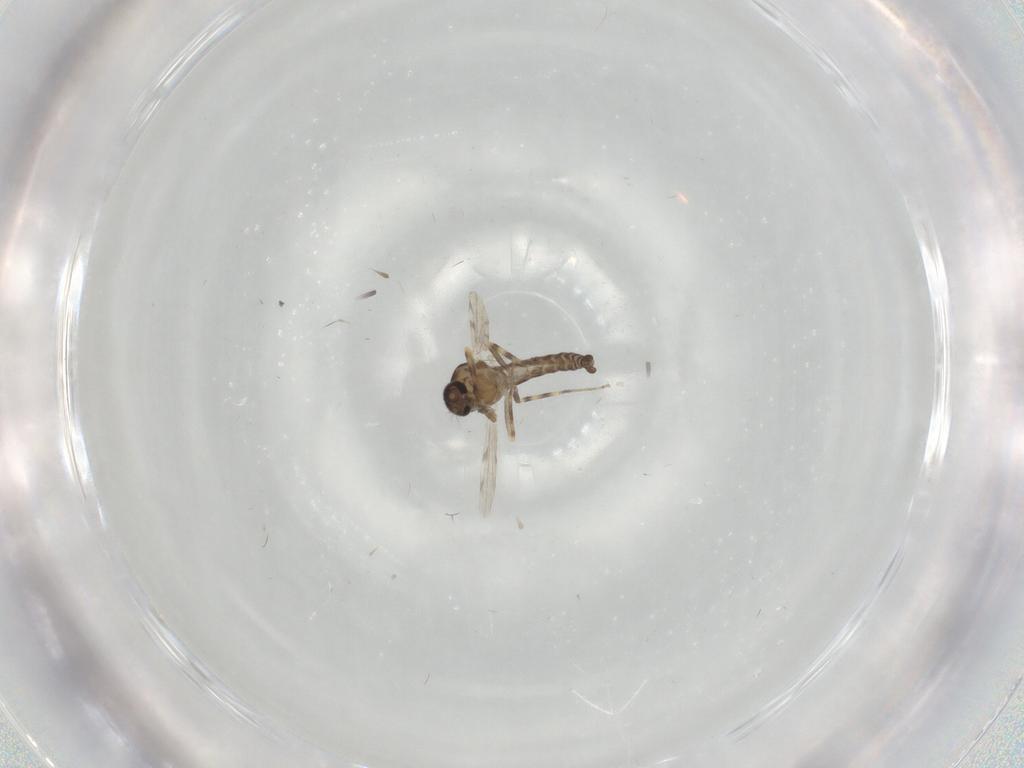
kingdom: Animalia
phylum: Arthropoda
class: Insecta
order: Diptera
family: Ceratopogonidae
